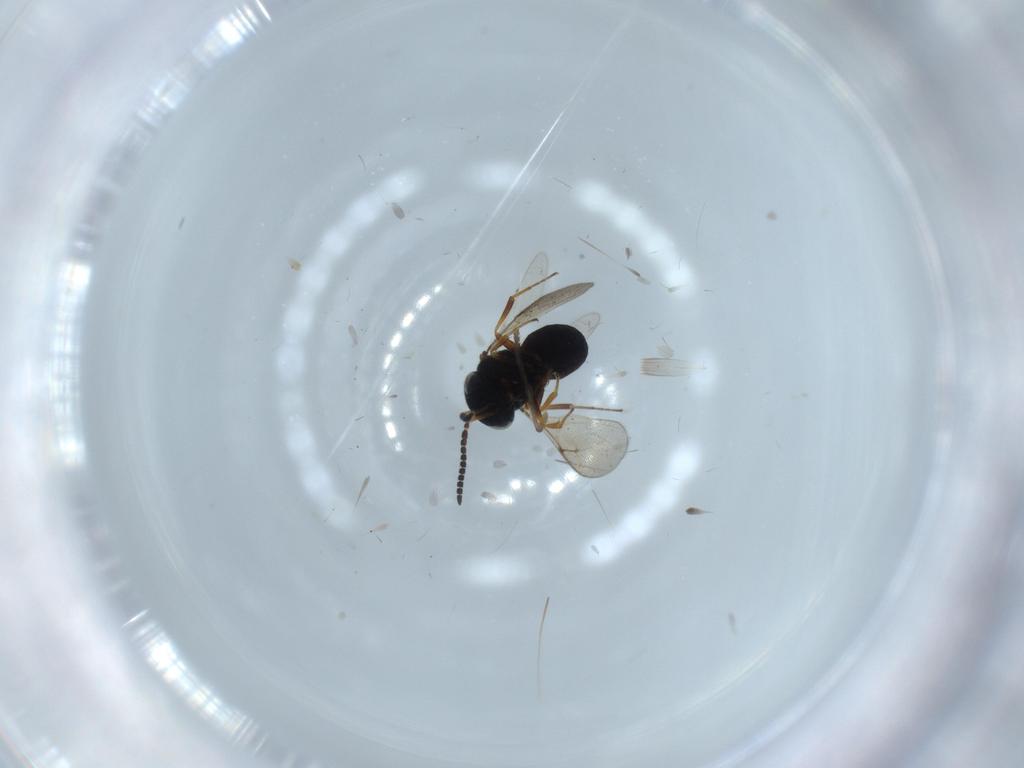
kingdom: Animalia
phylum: Arthropoda
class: Insecta
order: Hymenoptera
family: Scelionidae
